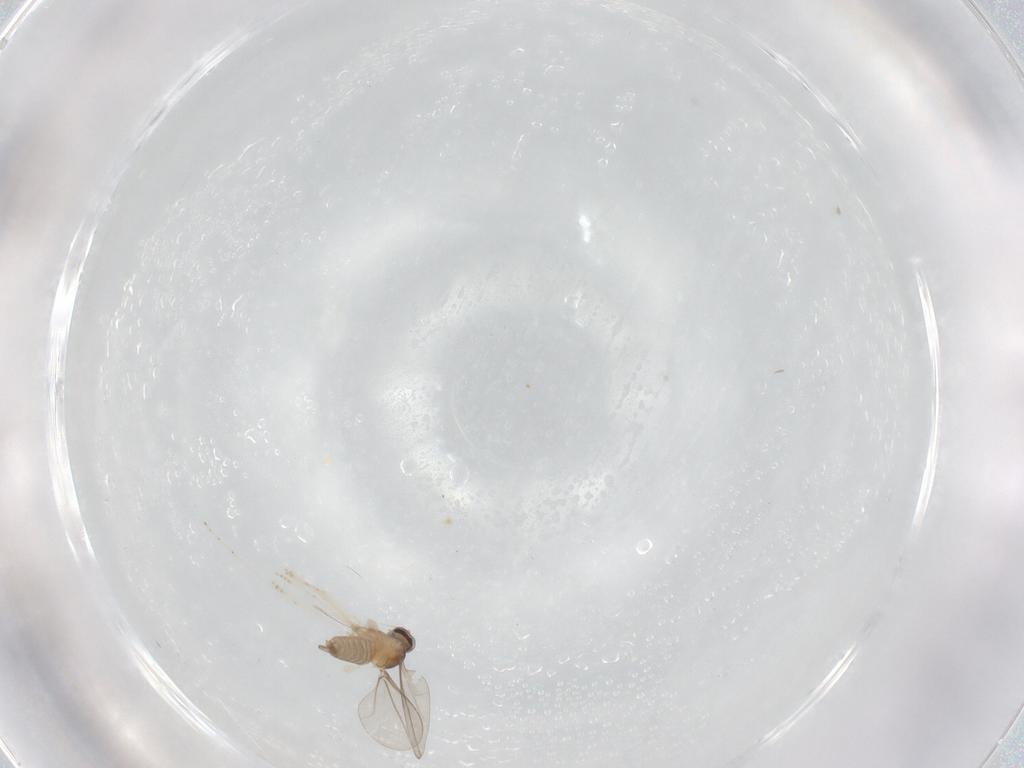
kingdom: Animalia
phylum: Arthropoda
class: Insecta
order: Diptera
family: Cecidomyiidae
